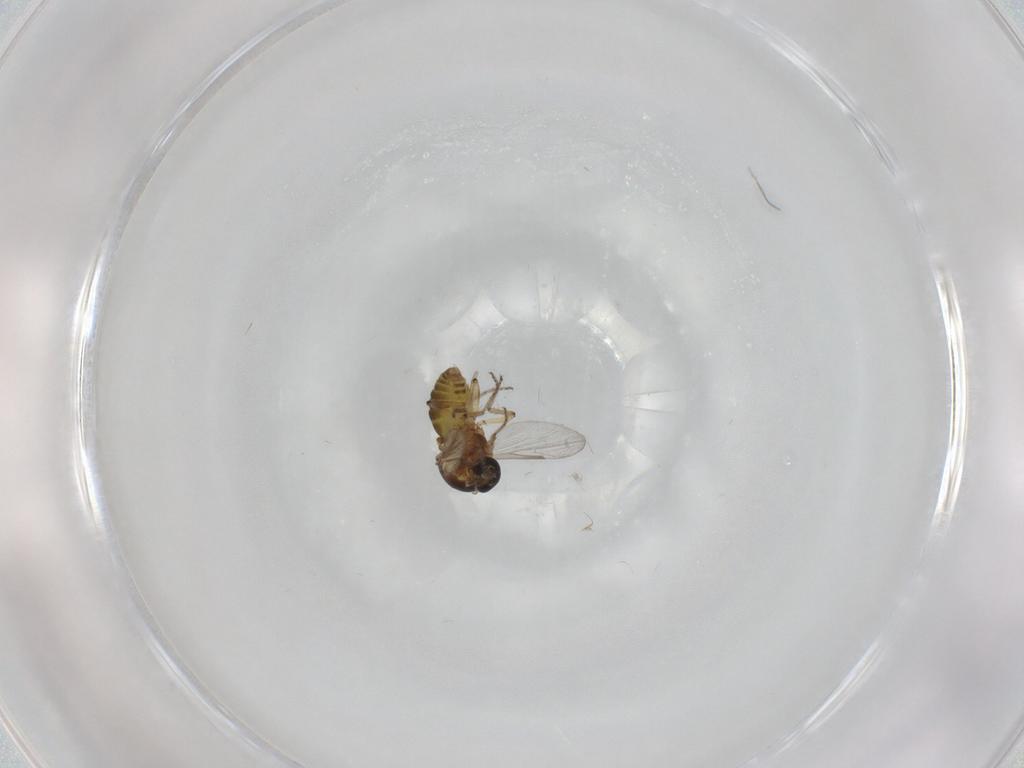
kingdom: Animalia
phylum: Arthropoda
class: Insecta
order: Diptera
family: Ceratopogonidae
